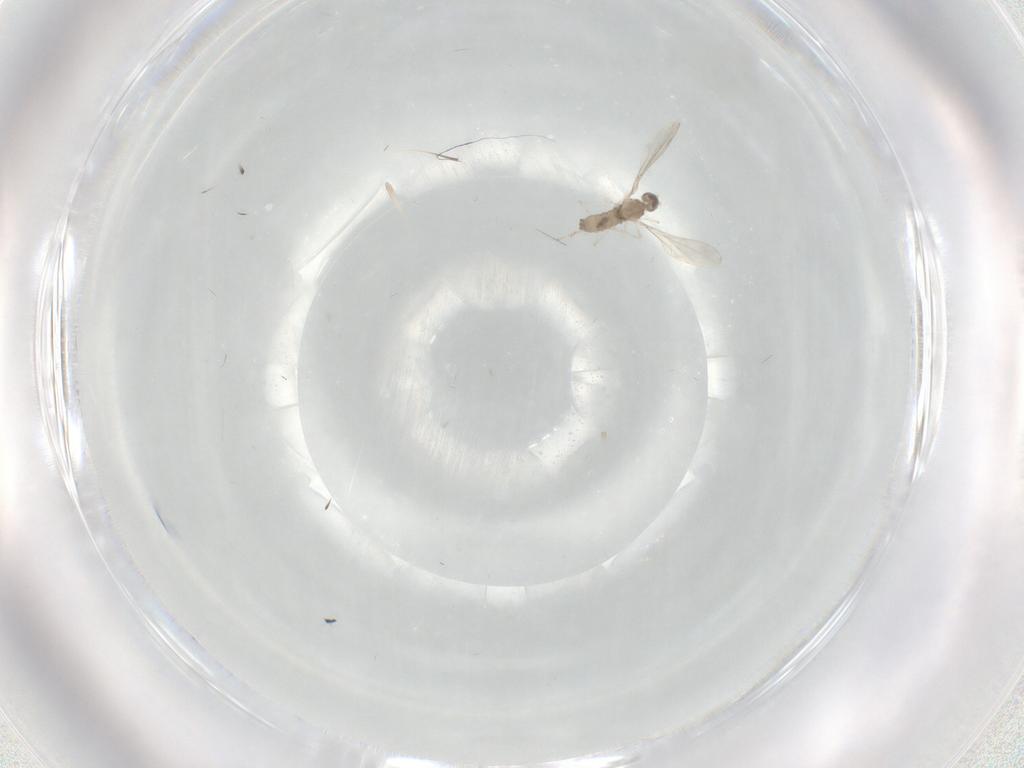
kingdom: Animalia
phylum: Arthropoda
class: Insecta
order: Diptera
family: Cecidomyiidae
